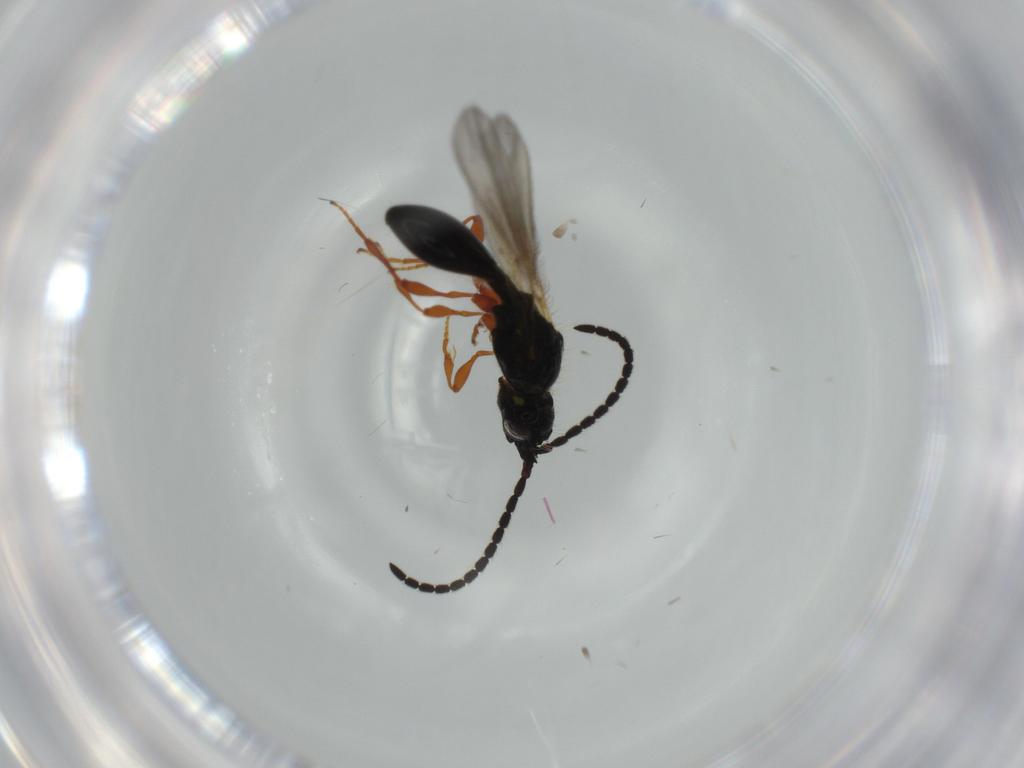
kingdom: Animalia
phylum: Arthropoda
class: Insecta
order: Hymenoptera
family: Diapriidae
